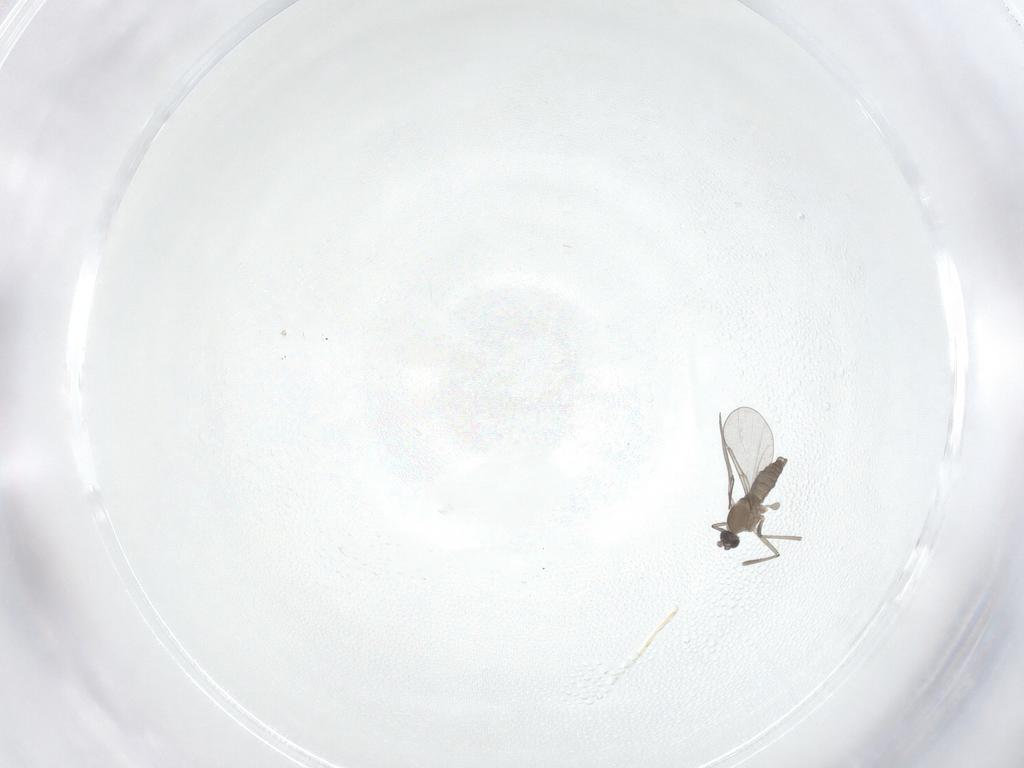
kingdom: Animalia
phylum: Arthropoda
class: Insecta
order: Diptera
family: Cecidomyiidae
